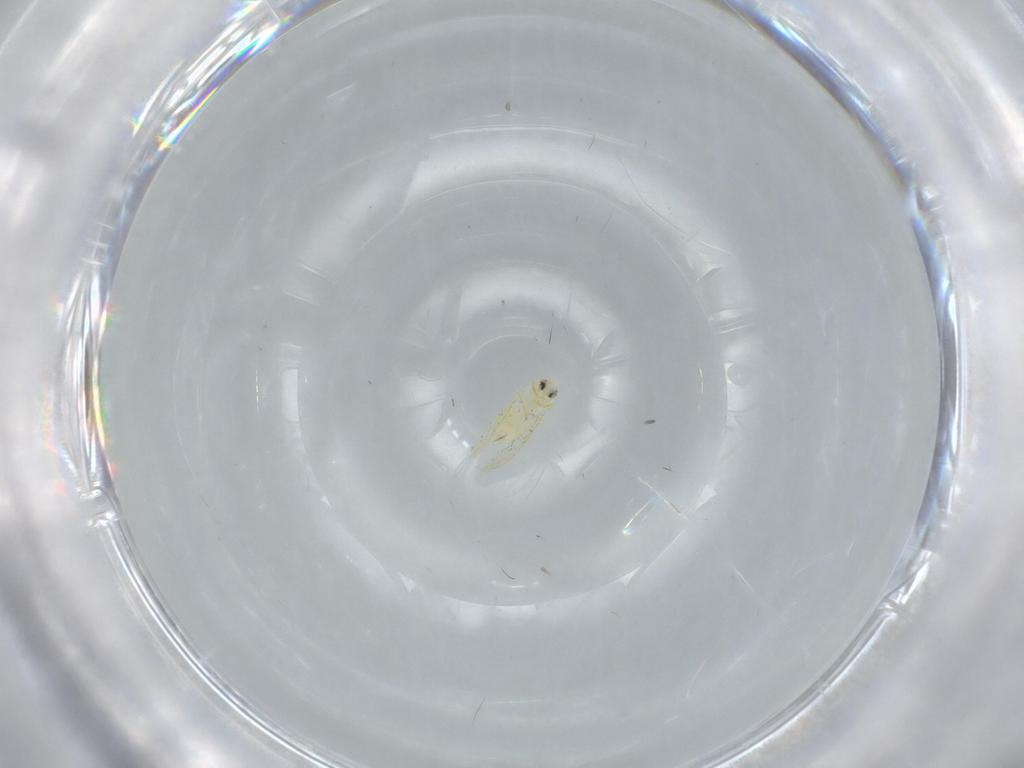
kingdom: Animalia
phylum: Arthropoda
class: Insecta
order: Hemiptera
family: Aleyrodidae
